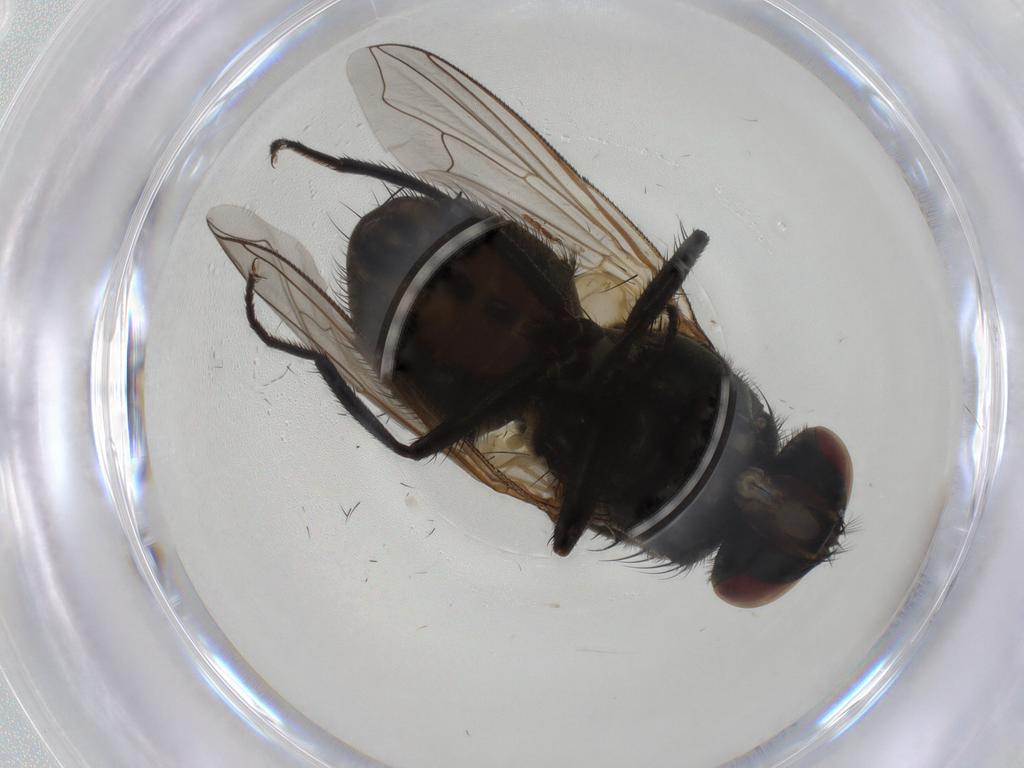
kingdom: Animalia
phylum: Arthropoda
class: Insecta
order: Diptera
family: Muscidae
